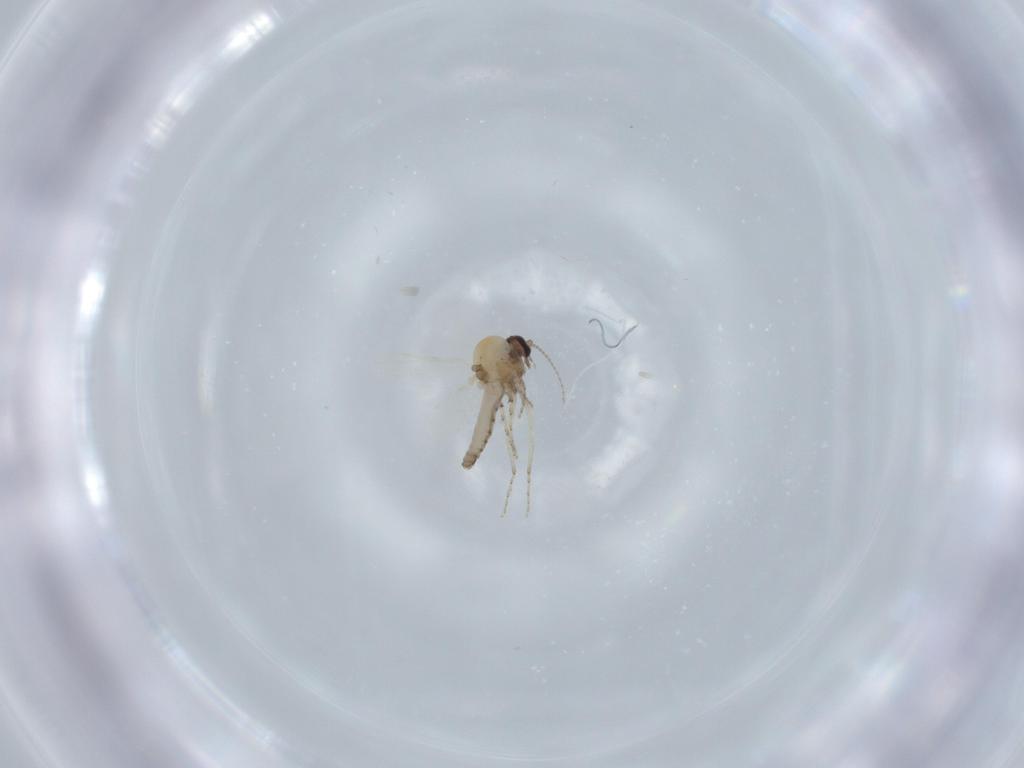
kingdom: Animalia
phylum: Arthropoda
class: Insecta
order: Diptera
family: Ceratopogonidae
